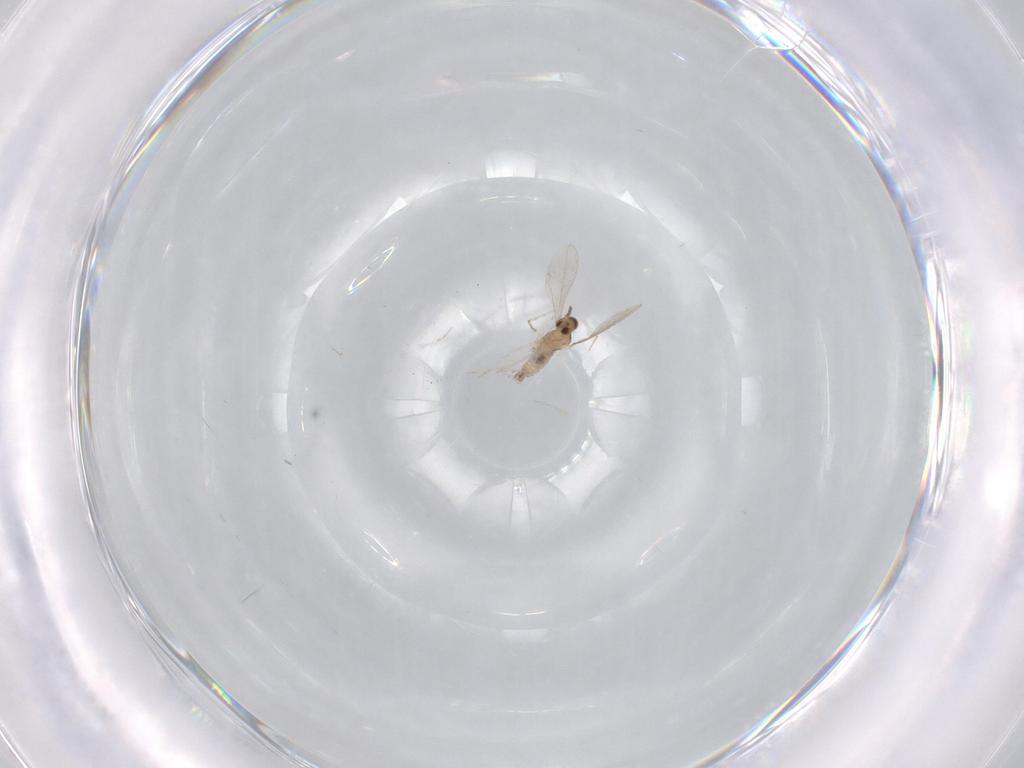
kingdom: Animalia
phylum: Arthropoda
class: Insecta
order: Diptera
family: Cecidomyiidae
